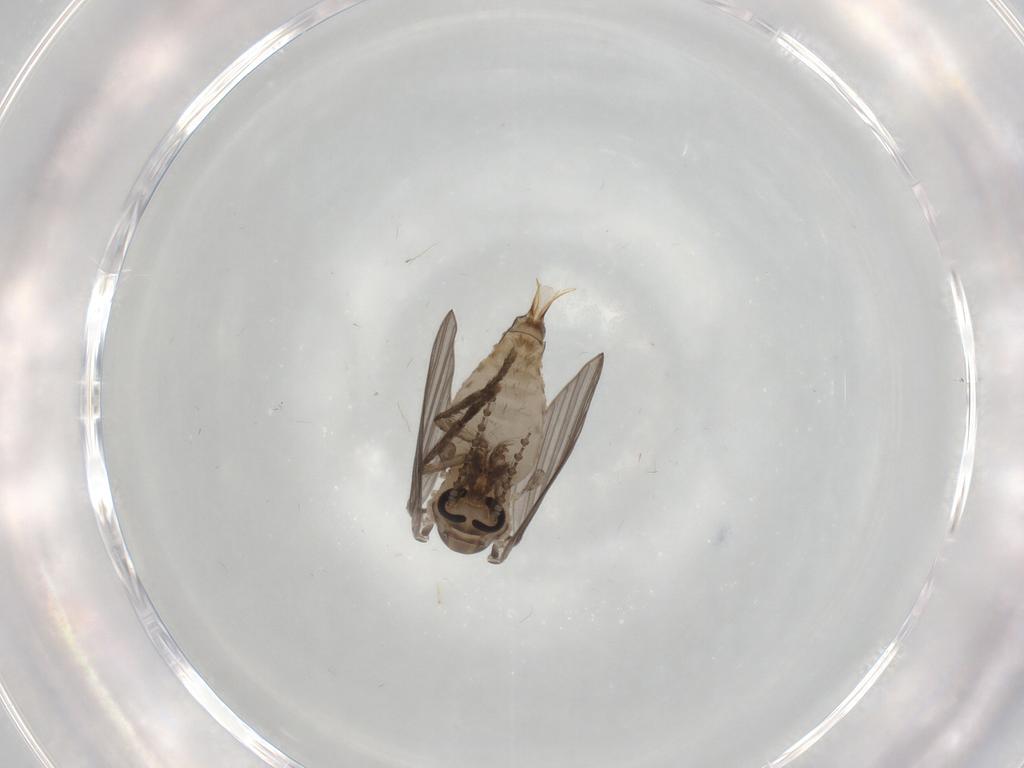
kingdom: Animalia
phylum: Arthropoda
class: Insecta
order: Diptera
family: Psychodidae
